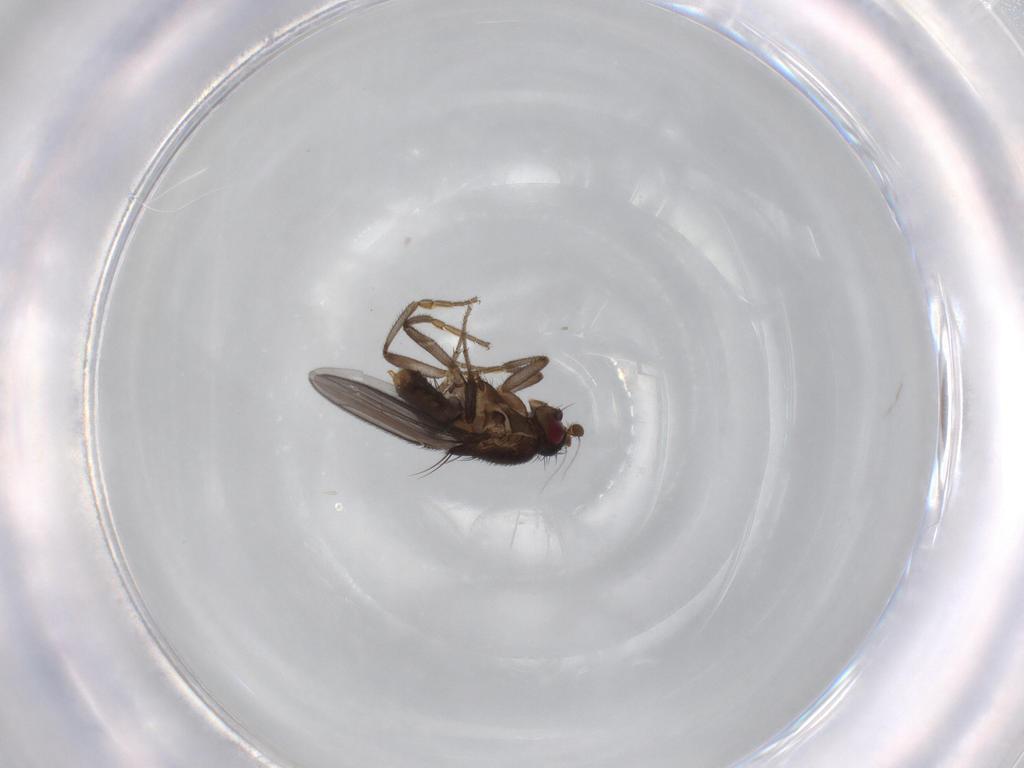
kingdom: Animalia
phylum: Arthropoda
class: Insecta
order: Diptera
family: Sphaeroceridae
